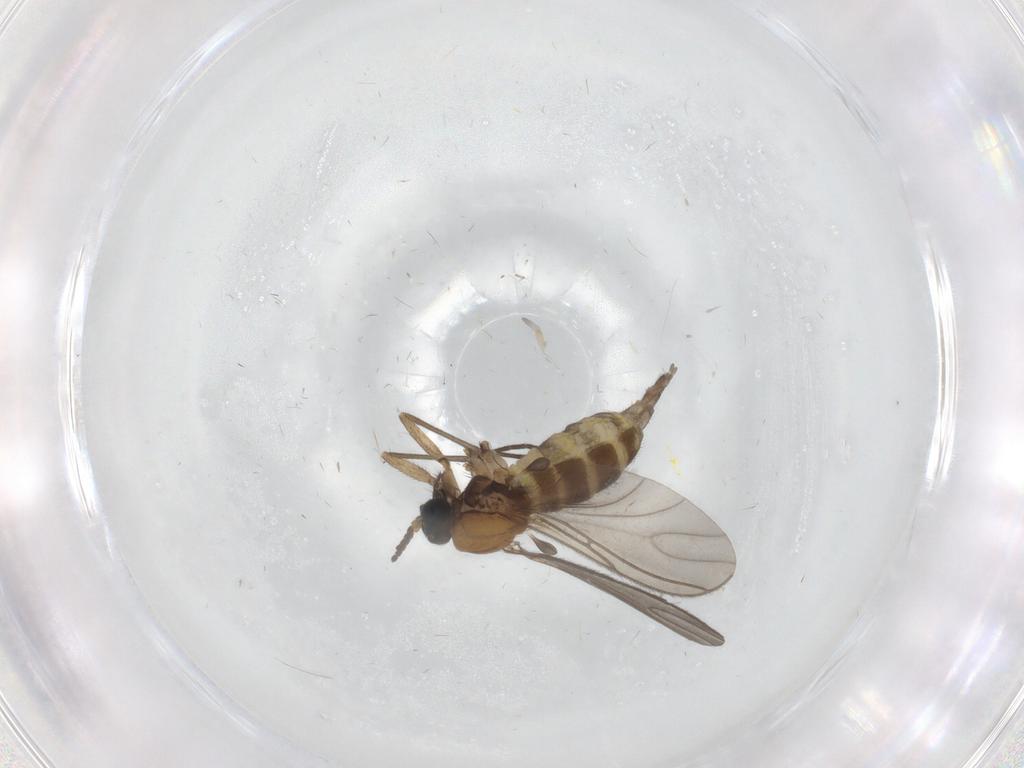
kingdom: Animalia
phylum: Arthropoda
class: Insecta
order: Diptera
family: Sciaridae
